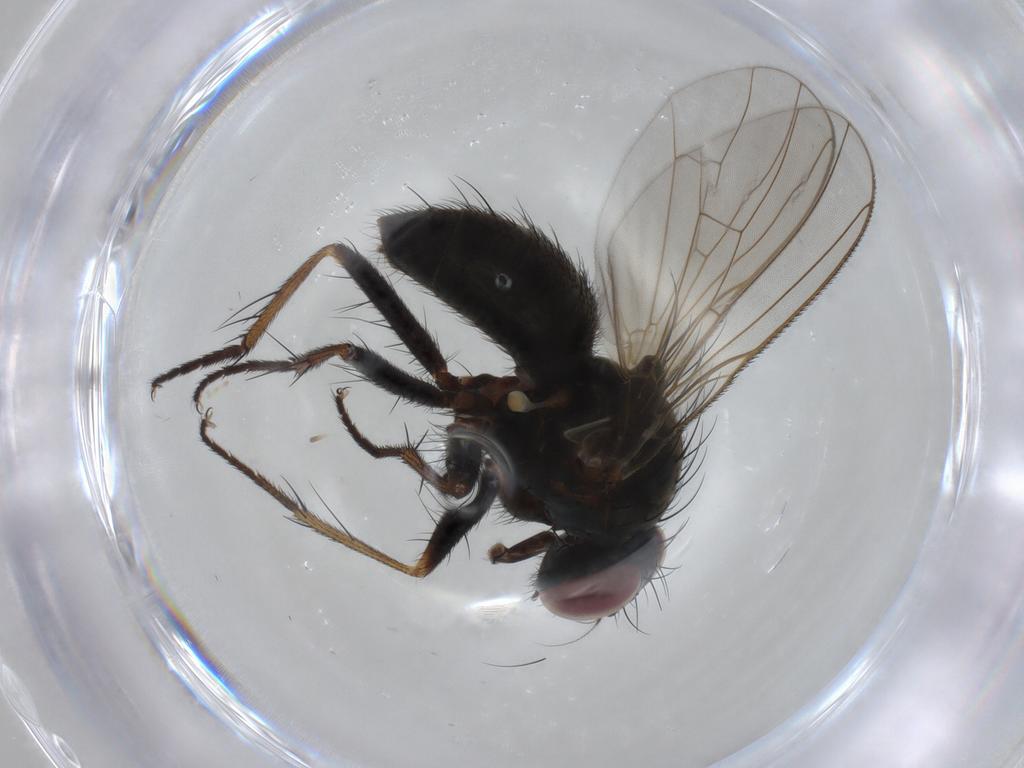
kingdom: Animalia
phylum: Arthropoda
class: Insecta
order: Diptera
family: Muscidae
